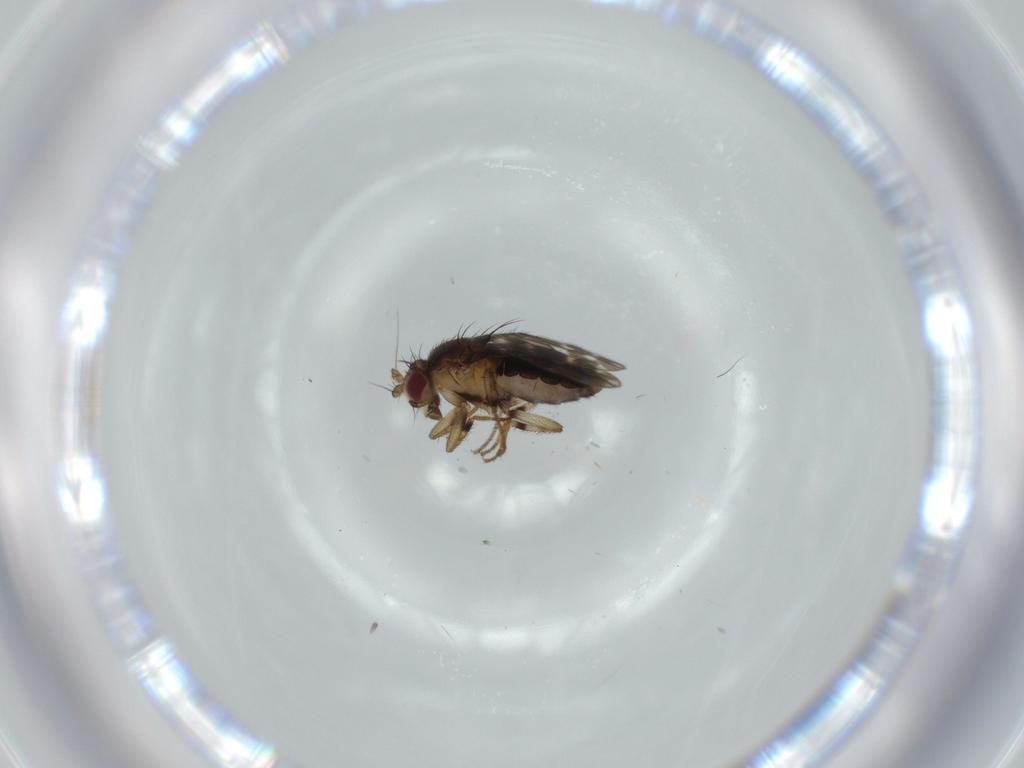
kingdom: Animalia
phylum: Arthropoda
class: Insecta
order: Diptera
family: Sphaeroceridae
